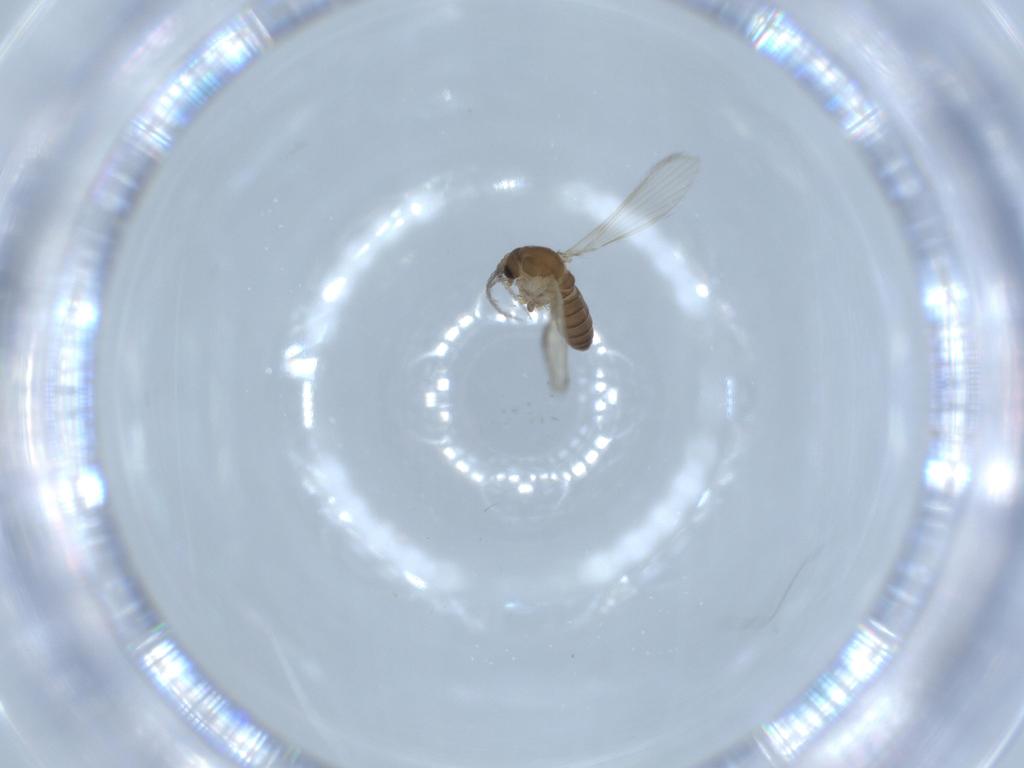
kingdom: Animalia
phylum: Arthropoda
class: Insecta
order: Diptera
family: Psychodidae
